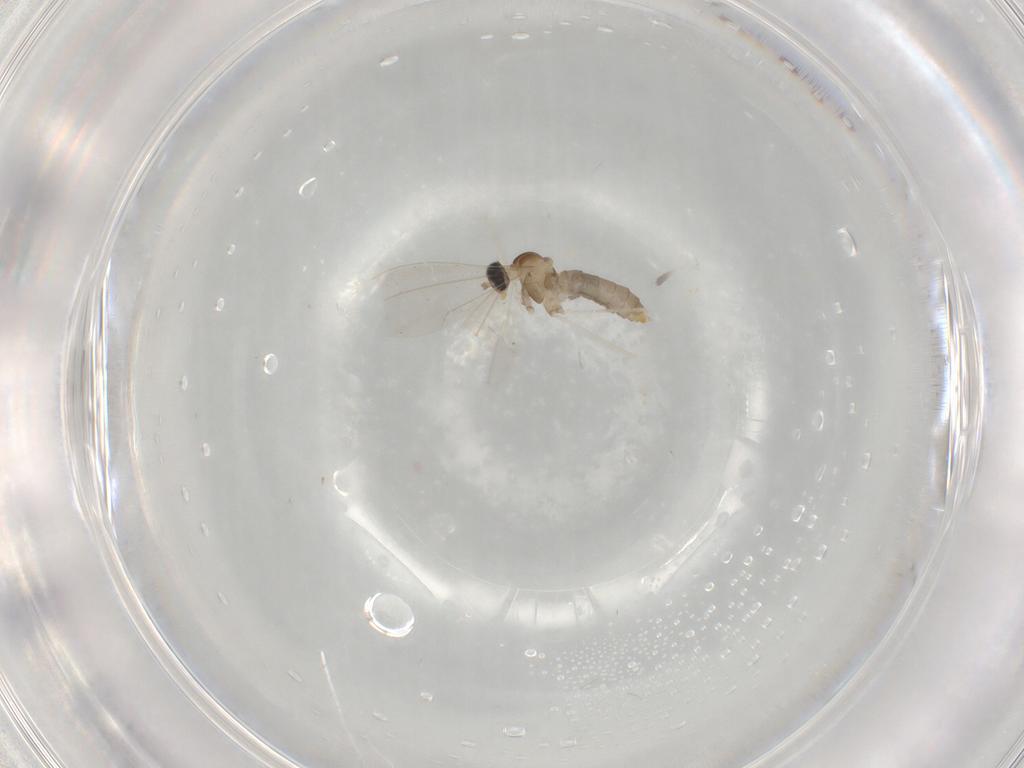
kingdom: Animalia
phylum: Arthropoda
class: Insecta
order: Diptera
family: Cecidomyiidae
